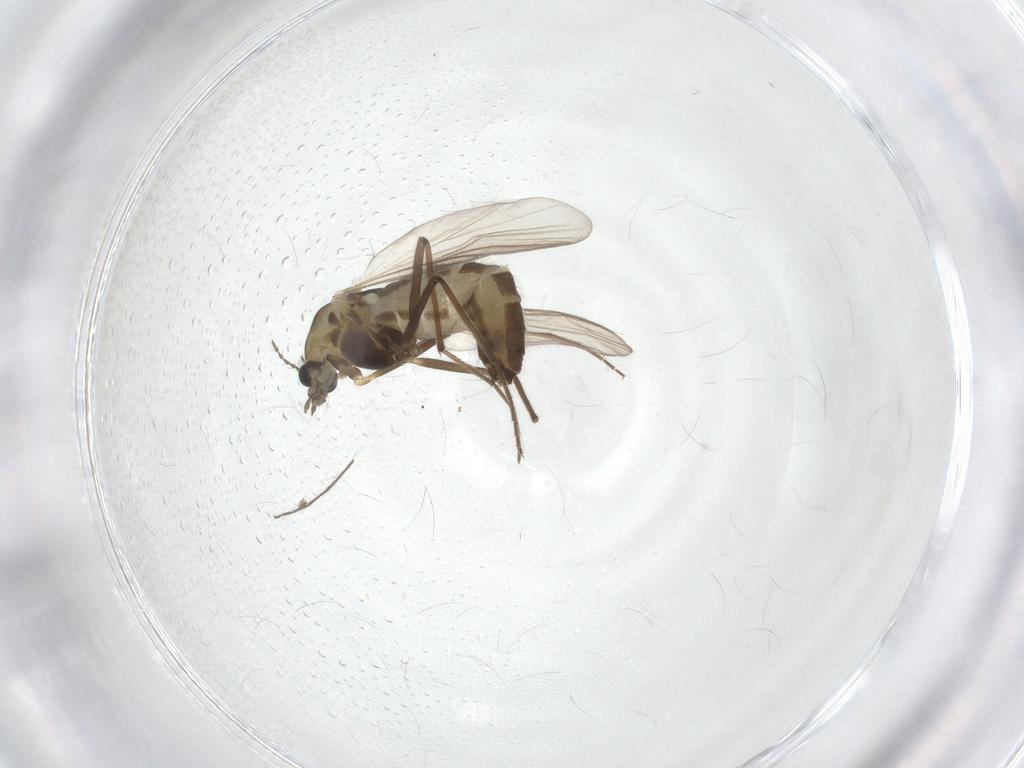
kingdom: Animalia
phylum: Arthropoda
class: Insecta
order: Diptera
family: Chironomidae
